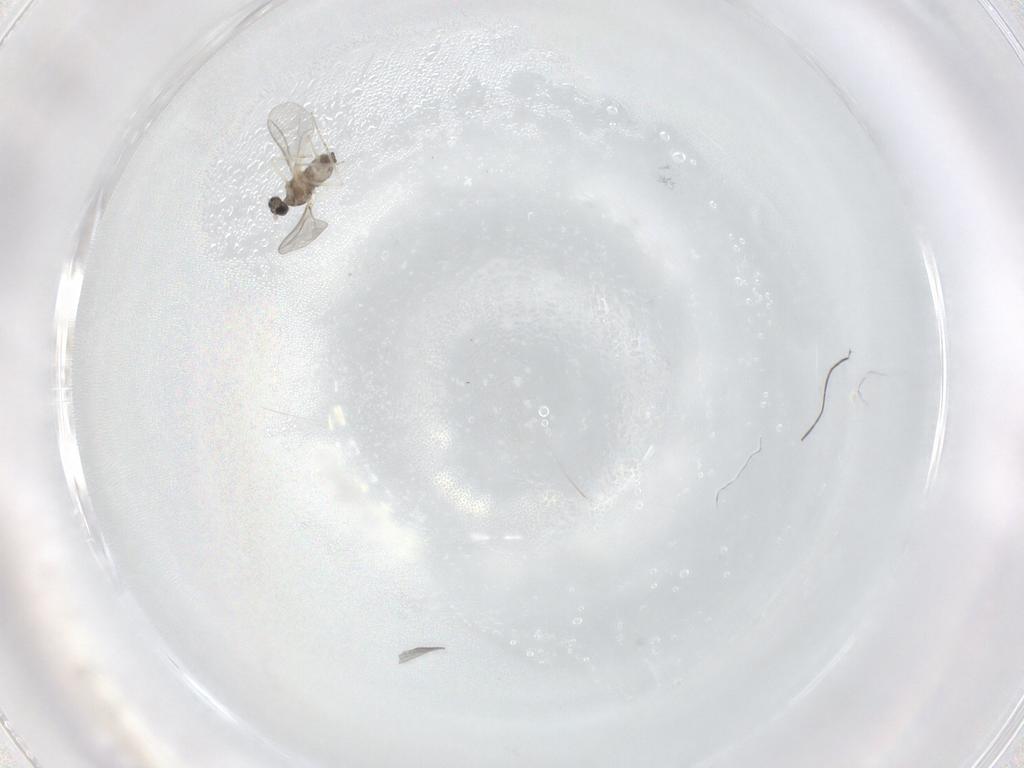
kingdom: Animalia
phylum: Arthropoda
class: Insecta
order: Diptera
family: Cecidomyiidae
